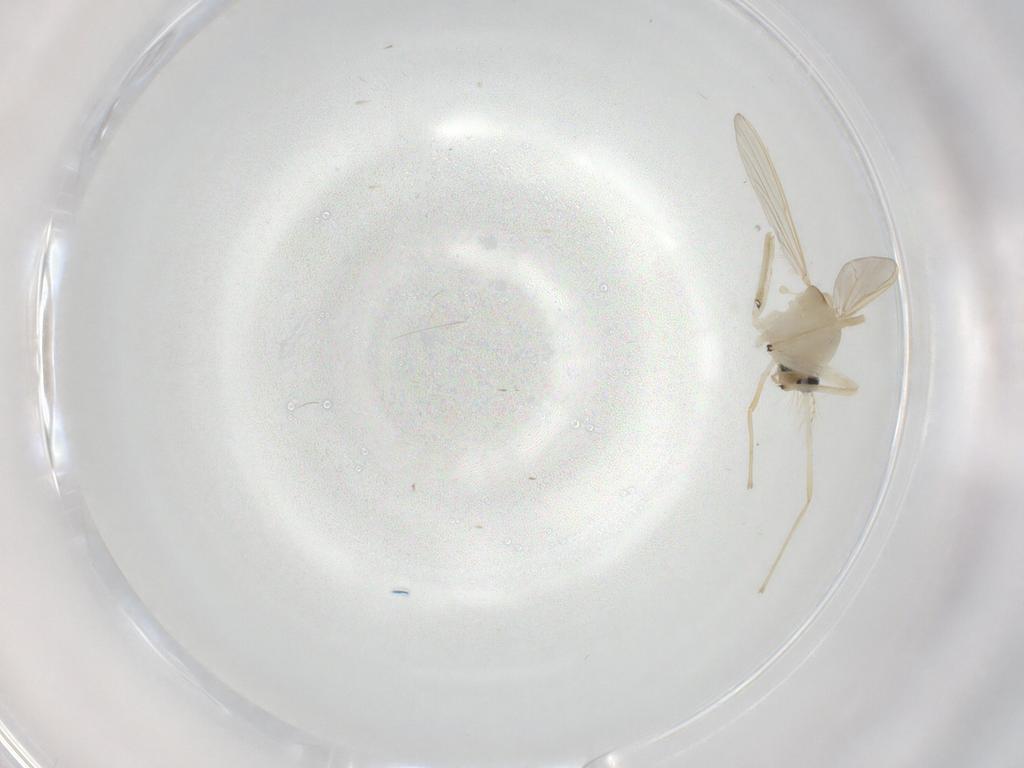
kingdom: Animalia
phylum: Arthropoda
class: Insecta
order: Diptera
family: Chironomidae
